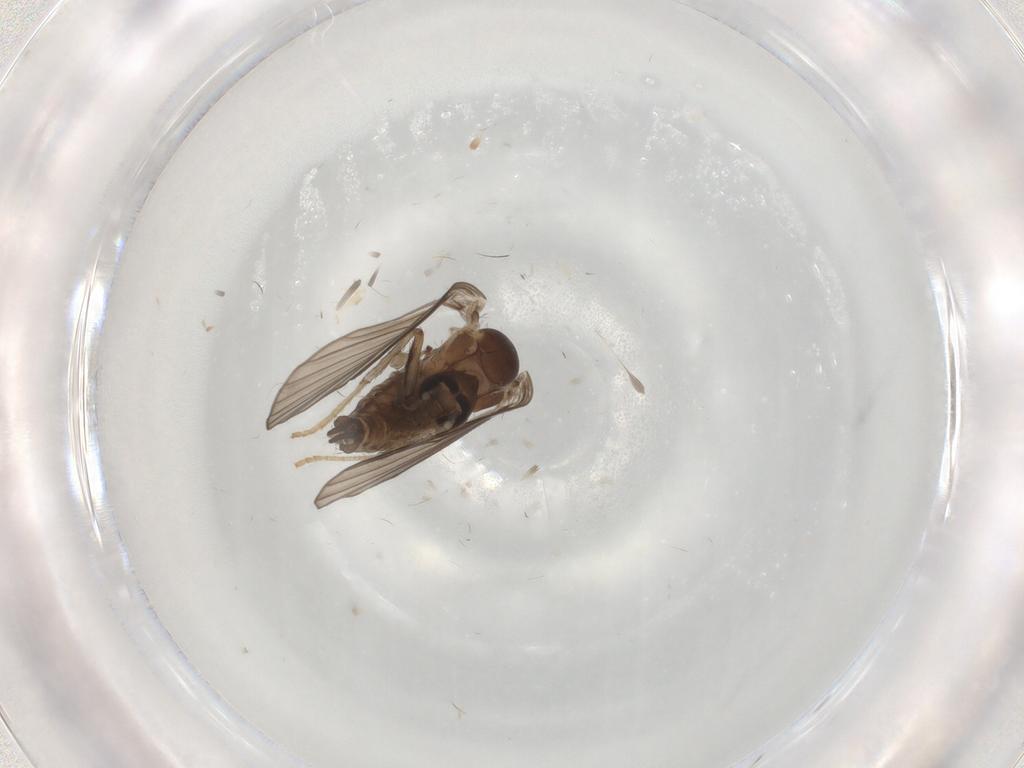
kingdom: Animalia
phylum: Arthropoda
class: Insecta
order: Diptera
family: Psychodidae
